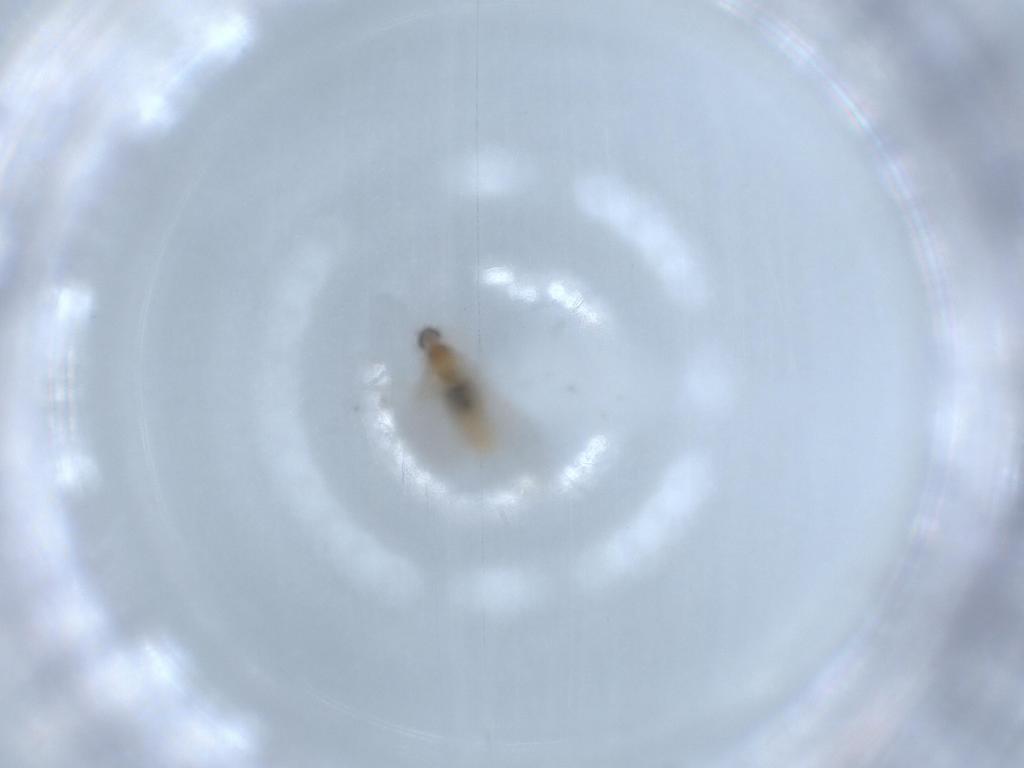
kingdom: Animalia
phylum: Arthropoda
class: Insecta
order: Diptera
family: Cecidomyiidae
